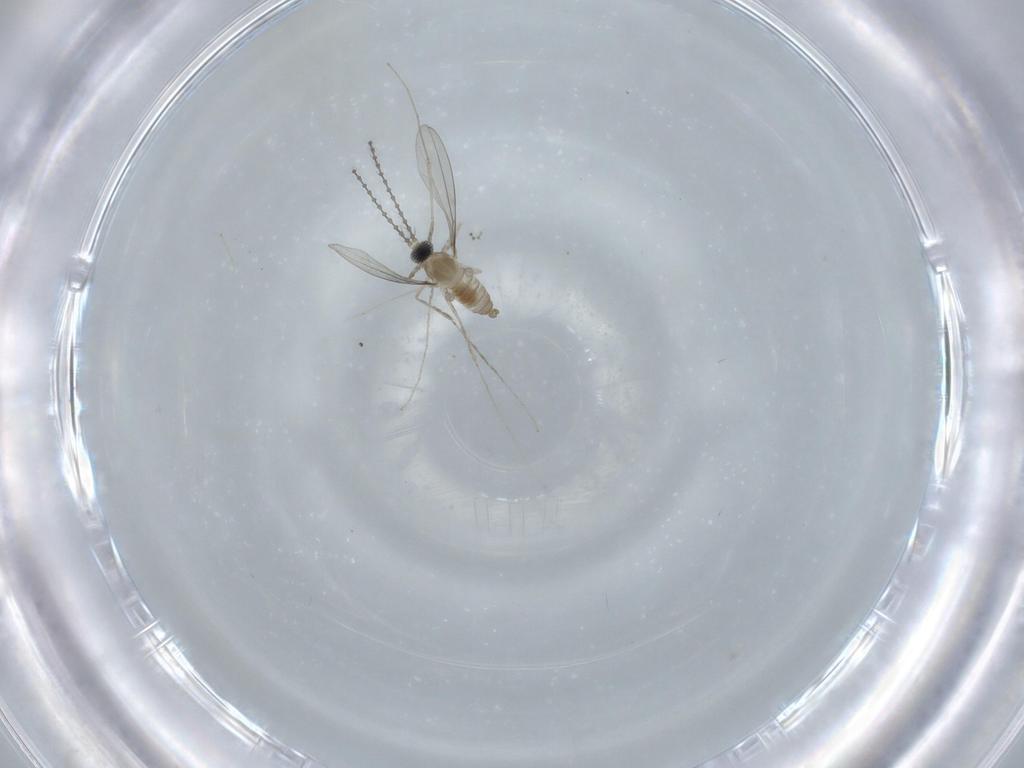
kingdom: Animalia
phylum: Arthropoda
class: Insecta
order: Diptera
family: Cecidomyiidae
